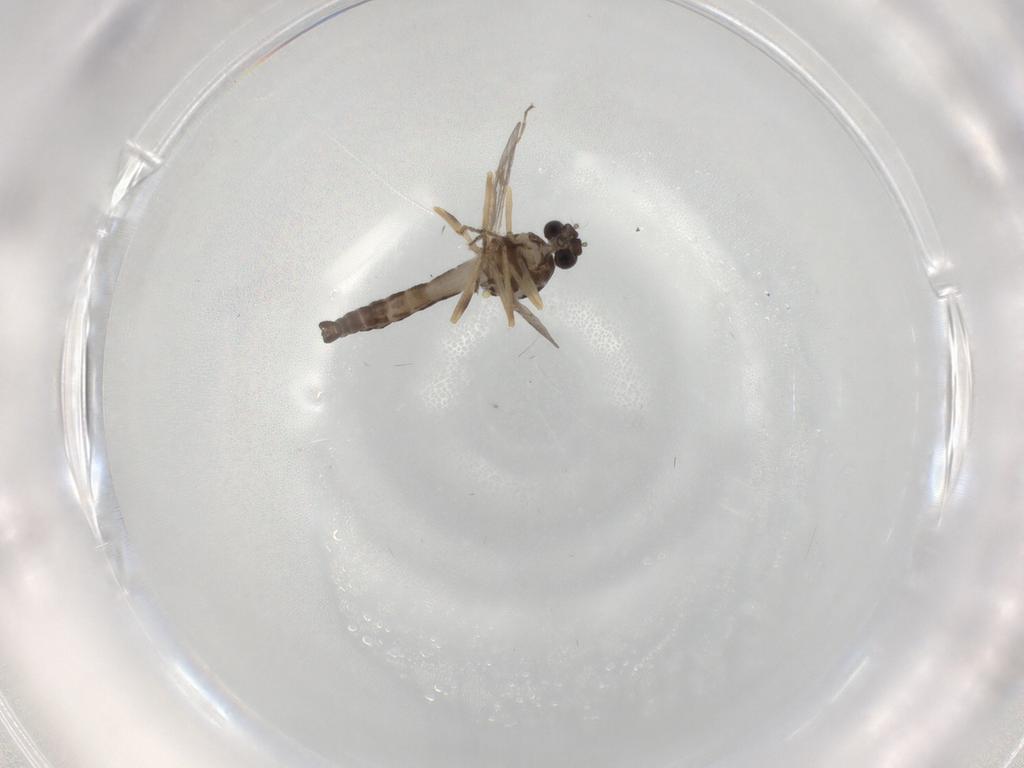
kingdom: Animalia
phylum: Arthropoda
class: Insecta
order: Diptera
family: Ceratopogonidae
